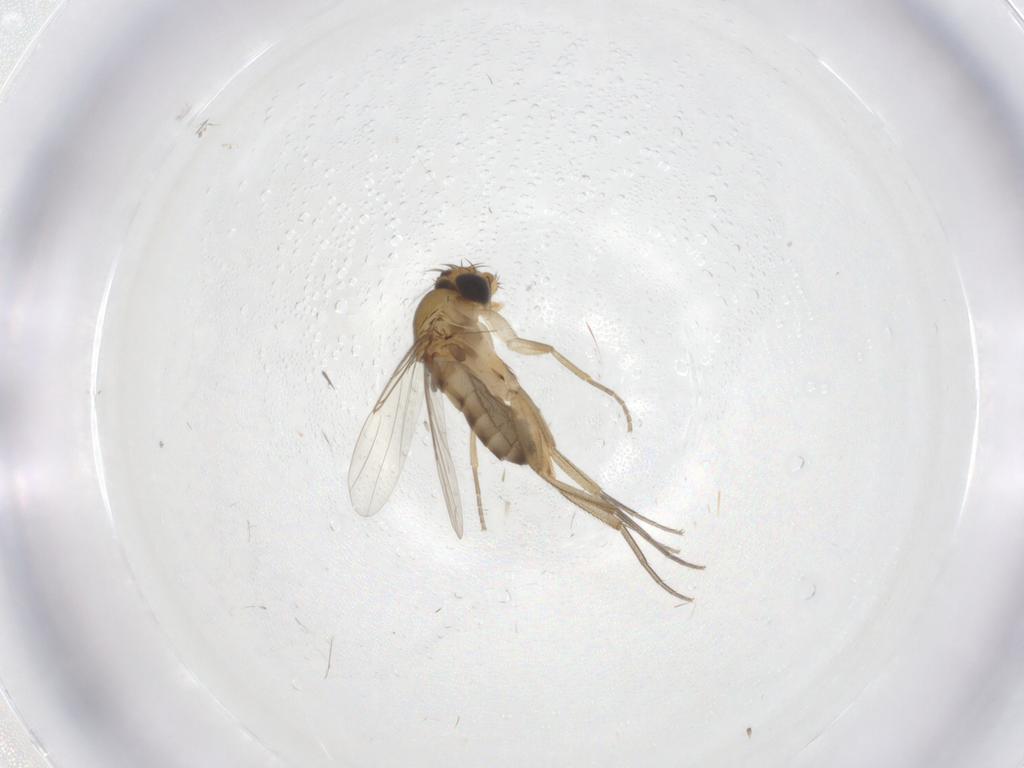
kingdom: Animalia
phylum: Arthropoda
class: Insecta
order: Diptera
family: Phoridae
